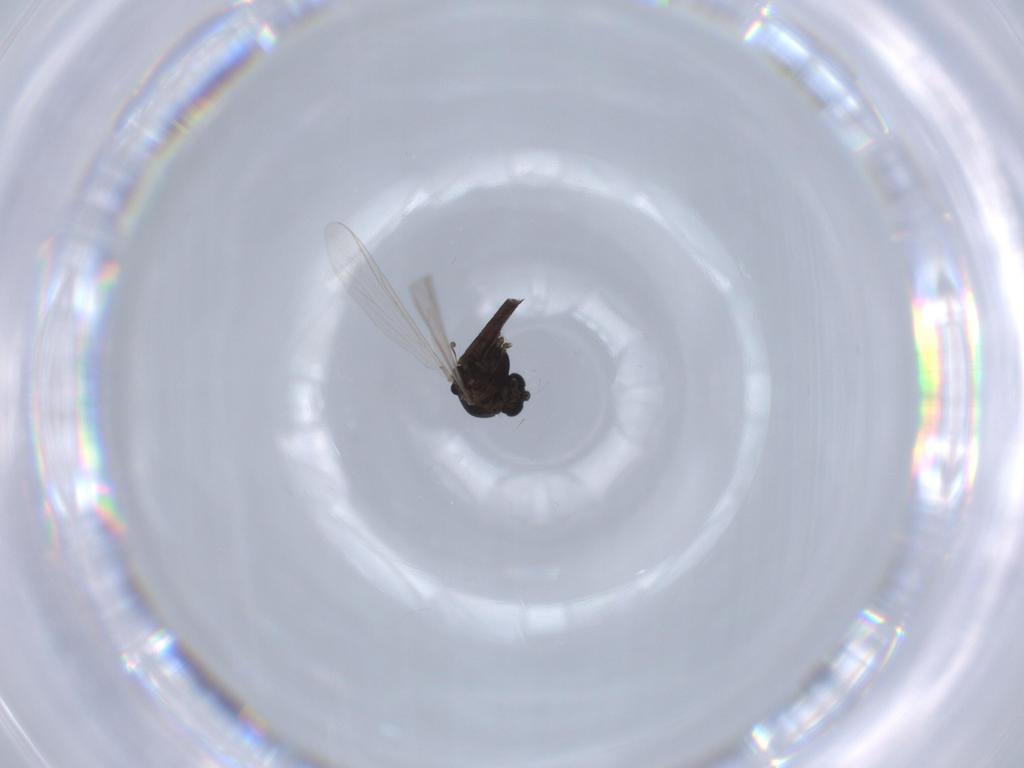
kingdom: Animalia
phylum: Arthropoda
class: Insecta
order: Diptera
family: Chironomidae
